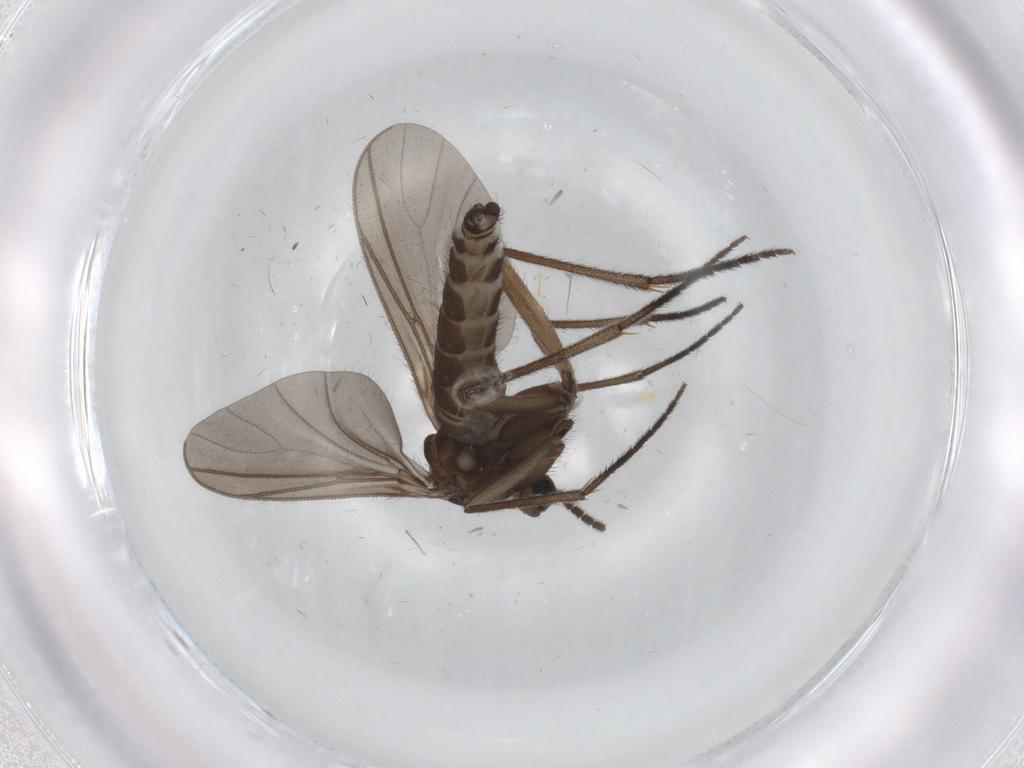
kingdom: Animalia
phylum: Arthropoda
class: Insecta
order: Diptera
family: Sciaridae
